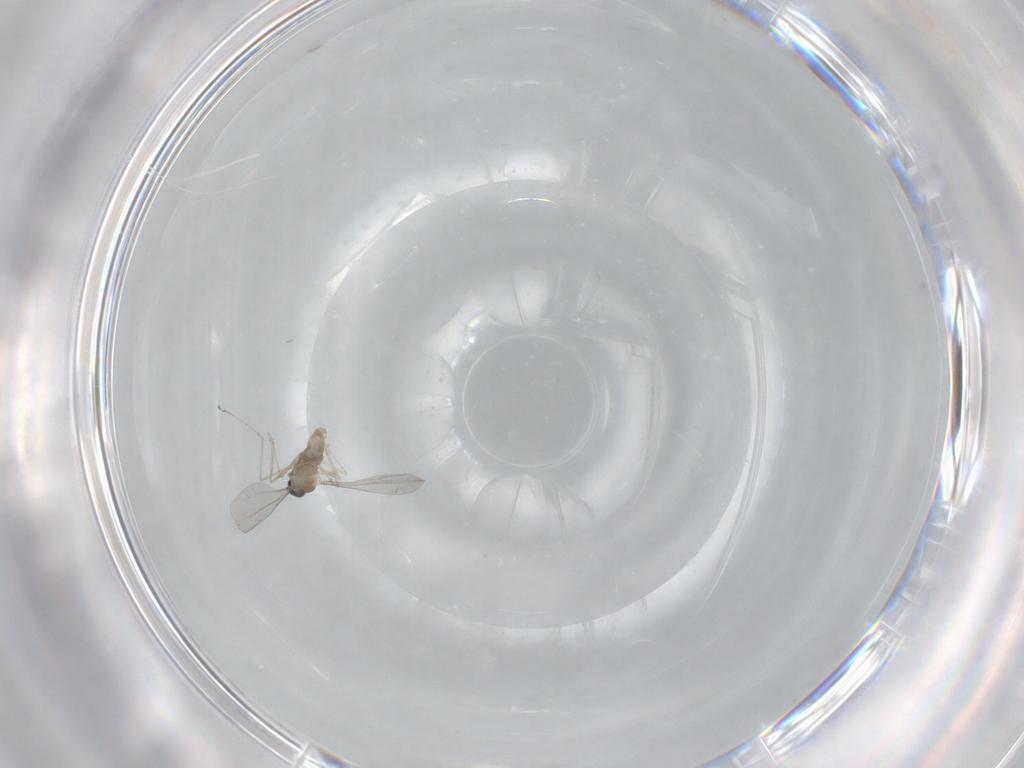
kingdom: Animalia
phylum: Arthropoda
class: Insecta
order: Diptera
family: Cecidomyiidae
